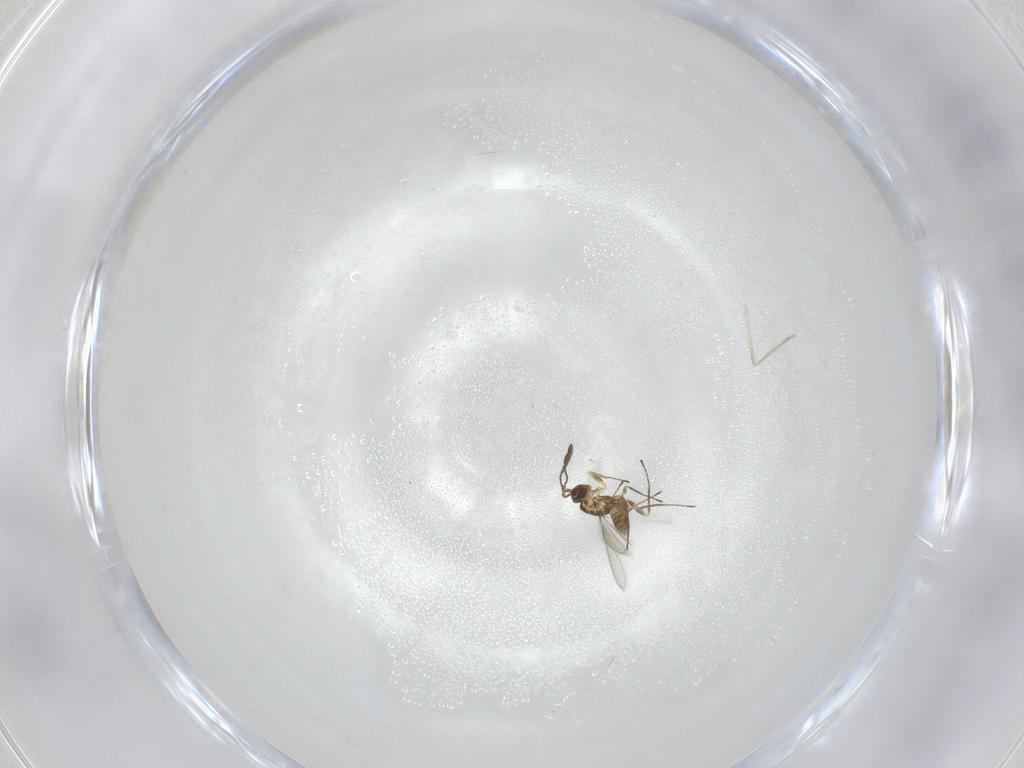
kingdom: Animalia
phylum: Arthropoda
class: Insecta
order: Hymenoptera
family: Mymaridae
